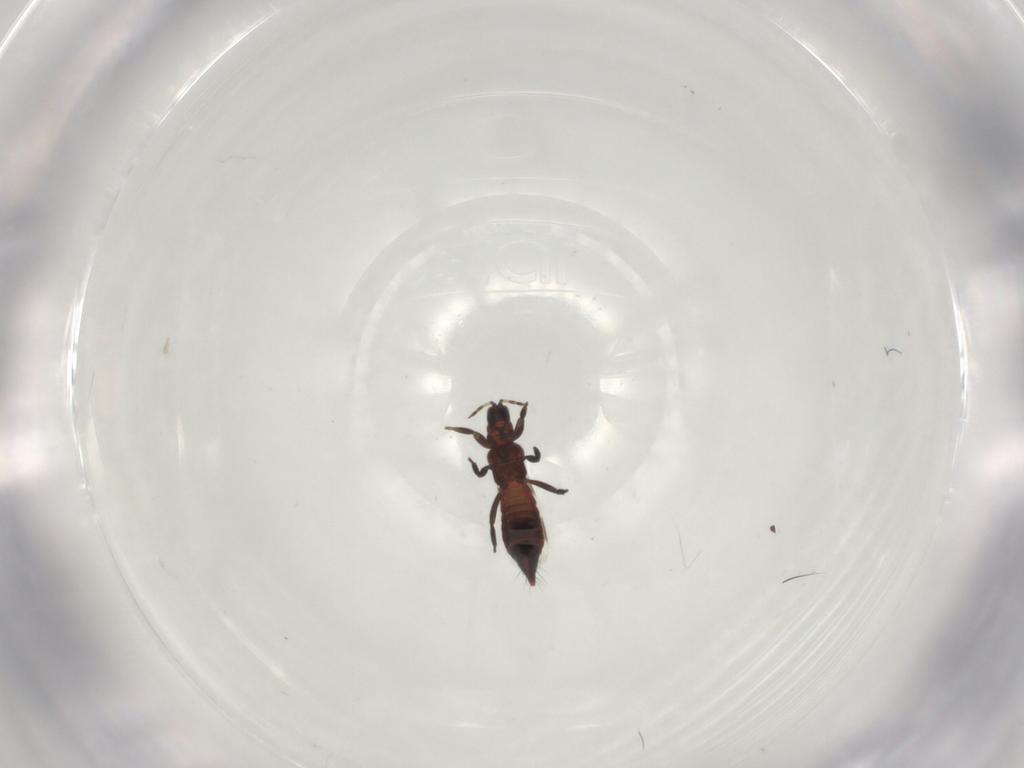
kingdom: Animalia
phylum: Arthropoda
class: Insecta
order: Thysanoptera
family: Aeolothripidae
